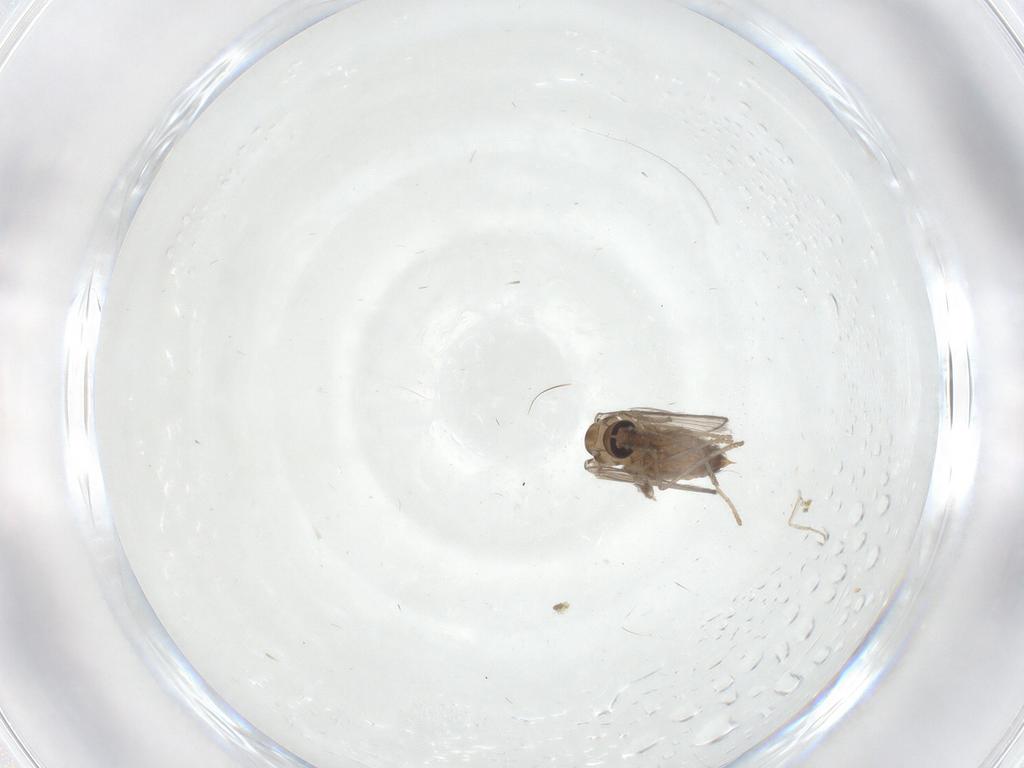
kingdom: Animalia
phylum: Arthropoda
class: Insecta
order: Diptera
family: Psychodidae
